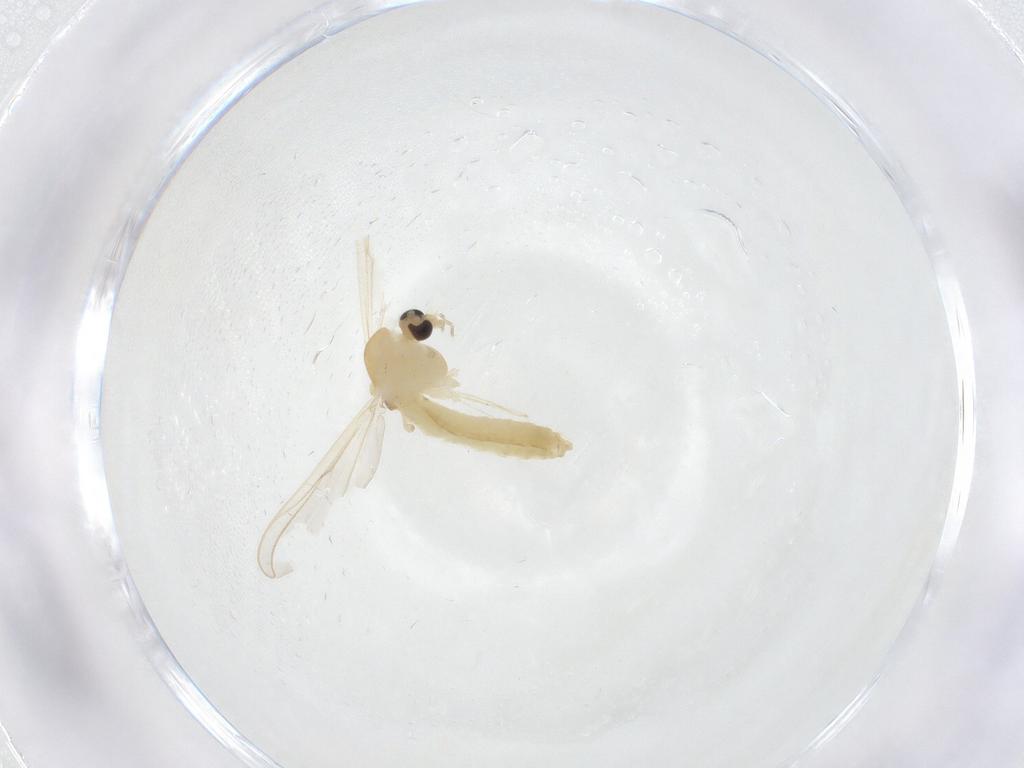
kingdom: Animalia
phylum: Arthropoda
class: Insecta
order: Diptera
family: Chironomidae
